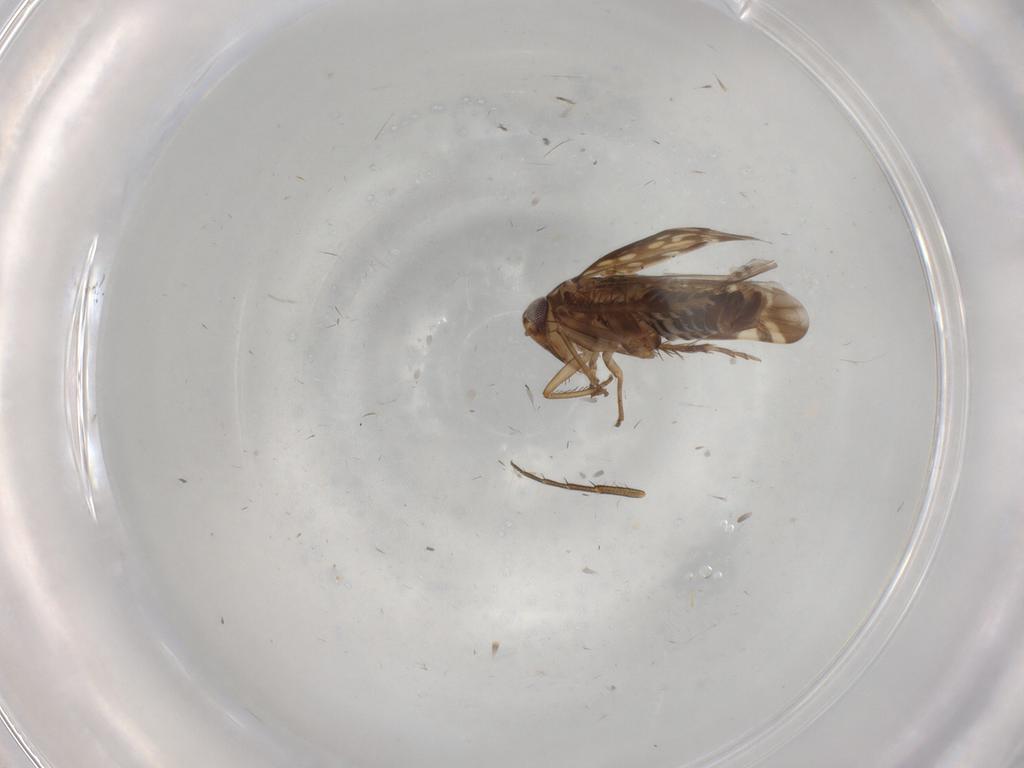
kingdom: Animalia
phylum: Arthropoda
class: Insecta
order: Hemiptera
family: Cicadellidae
